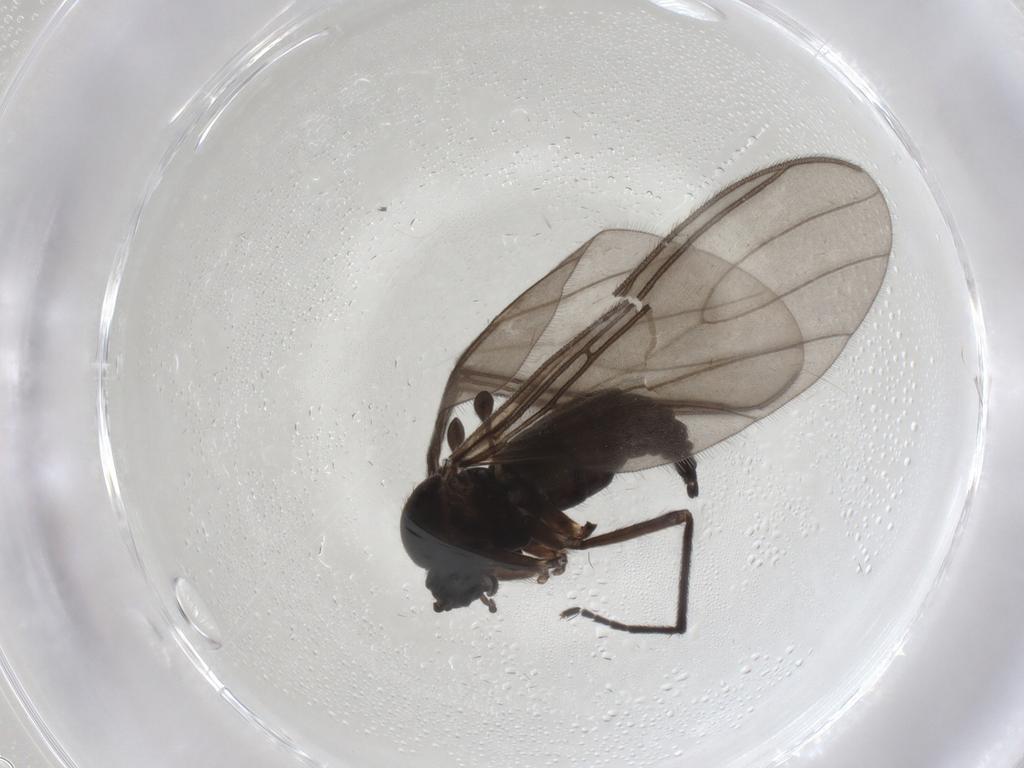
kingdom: Animalia
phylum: Arthropoda
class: Insecta
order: Diptera
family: Sciaridae
